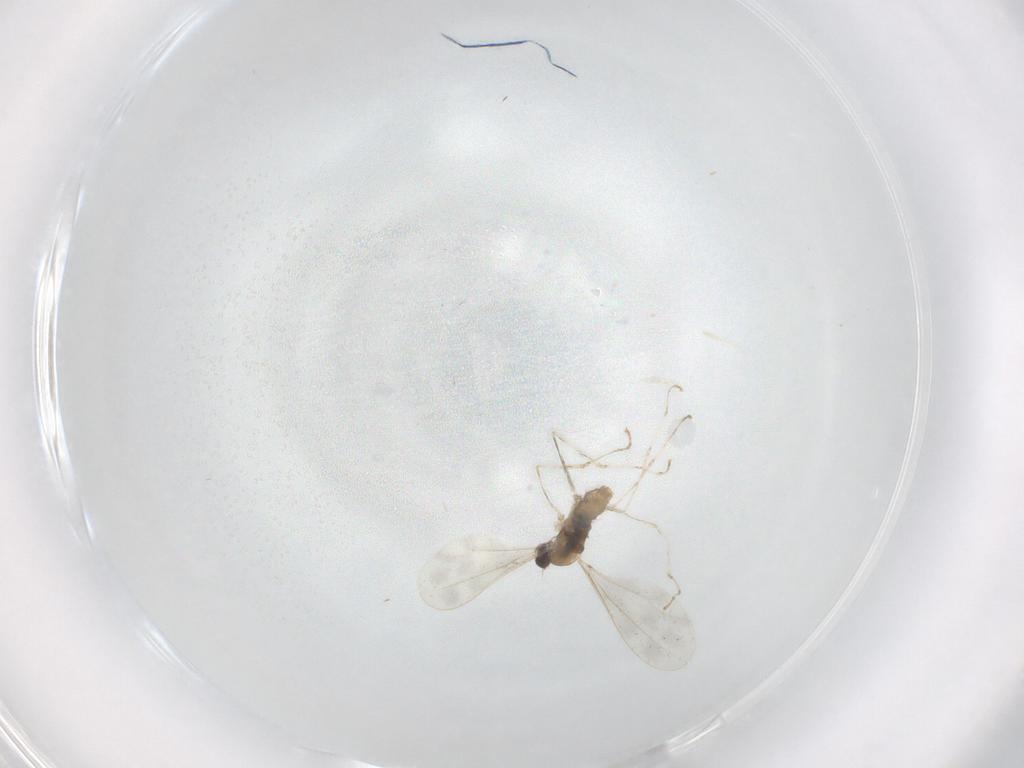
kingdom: Animalia
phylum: Arthropoda
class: Insecta
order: Diptera
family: Cecidomyiidae
